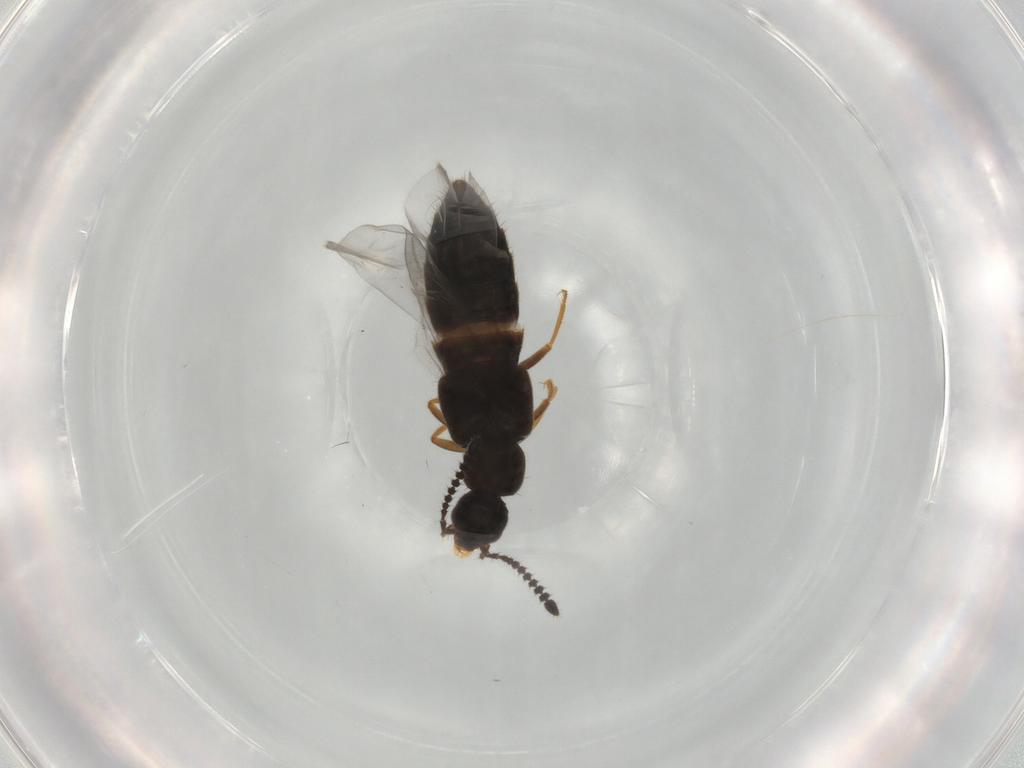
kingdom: Animalia
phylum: Arthropoda
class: Insecta
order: Coleoptera
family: Staphylinidae
